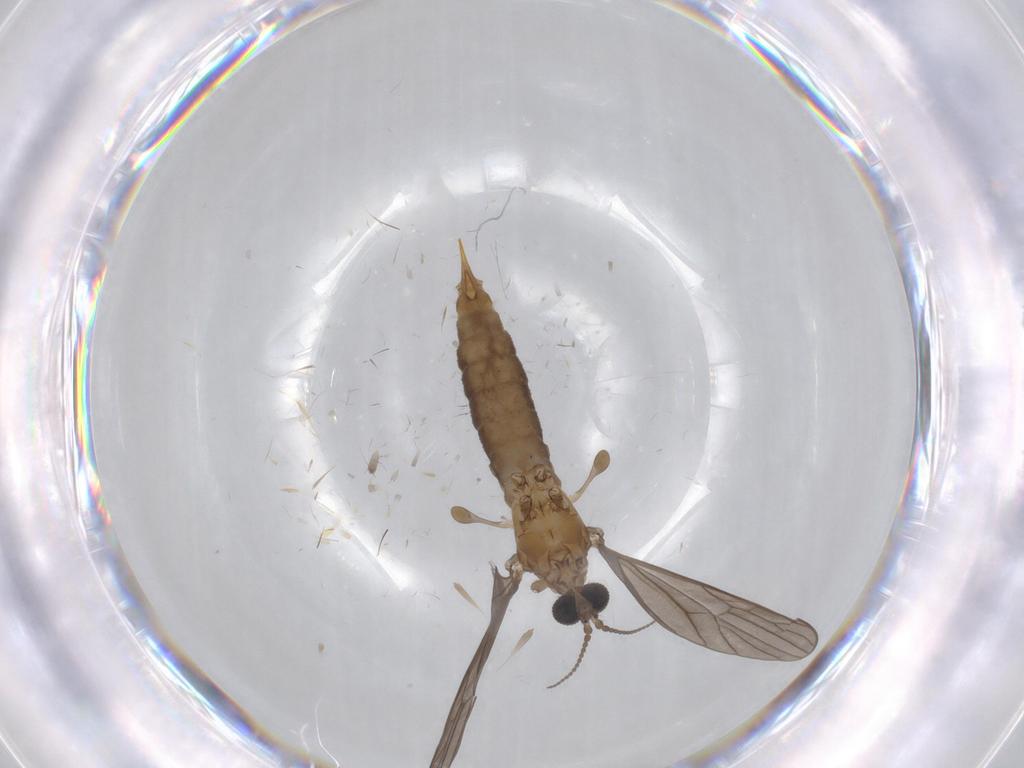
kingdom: Animalia
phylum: Arthropoda
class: Insecta
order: Diptera
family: Limoniidae
